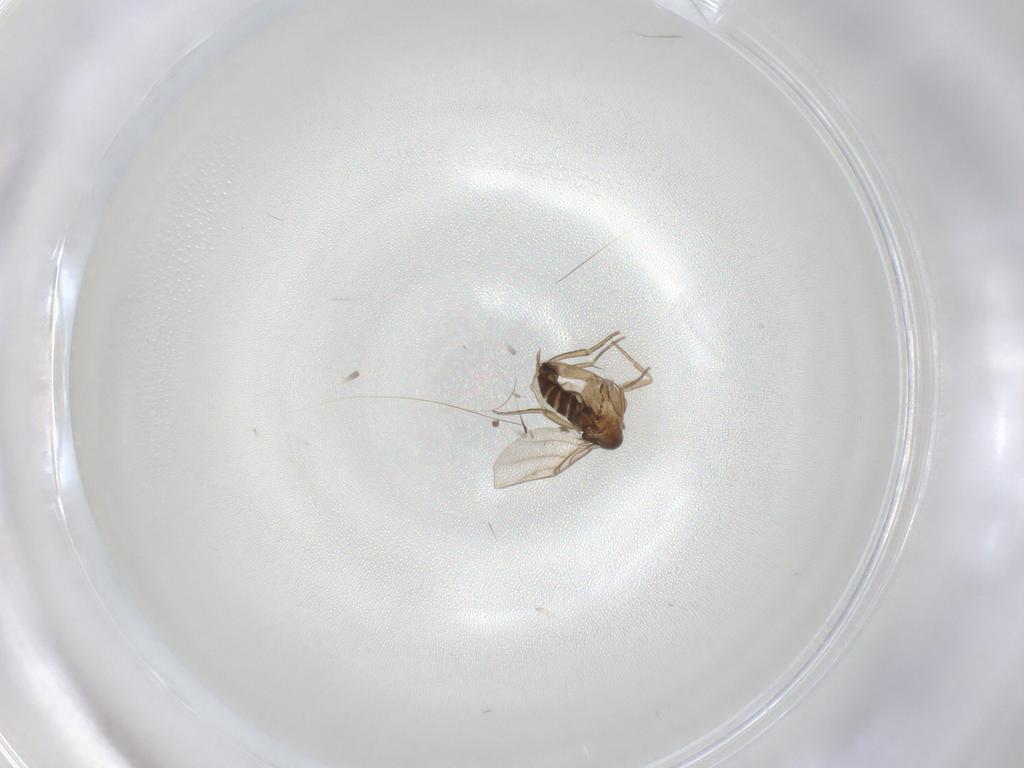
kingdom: Animalia
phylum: Arthropoda
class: Insecta
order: Diptera
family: Cecidomyiidae
